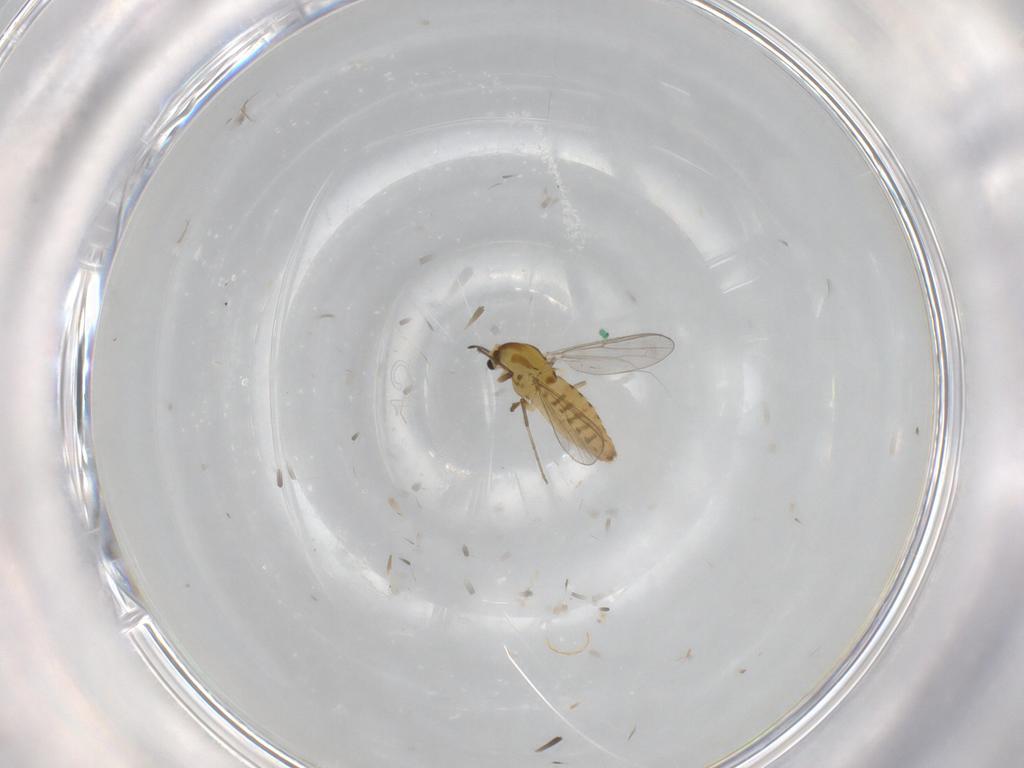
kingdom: Animalia
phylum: Arthropoda
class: Insecta
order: Diptera
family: Chironomidae
